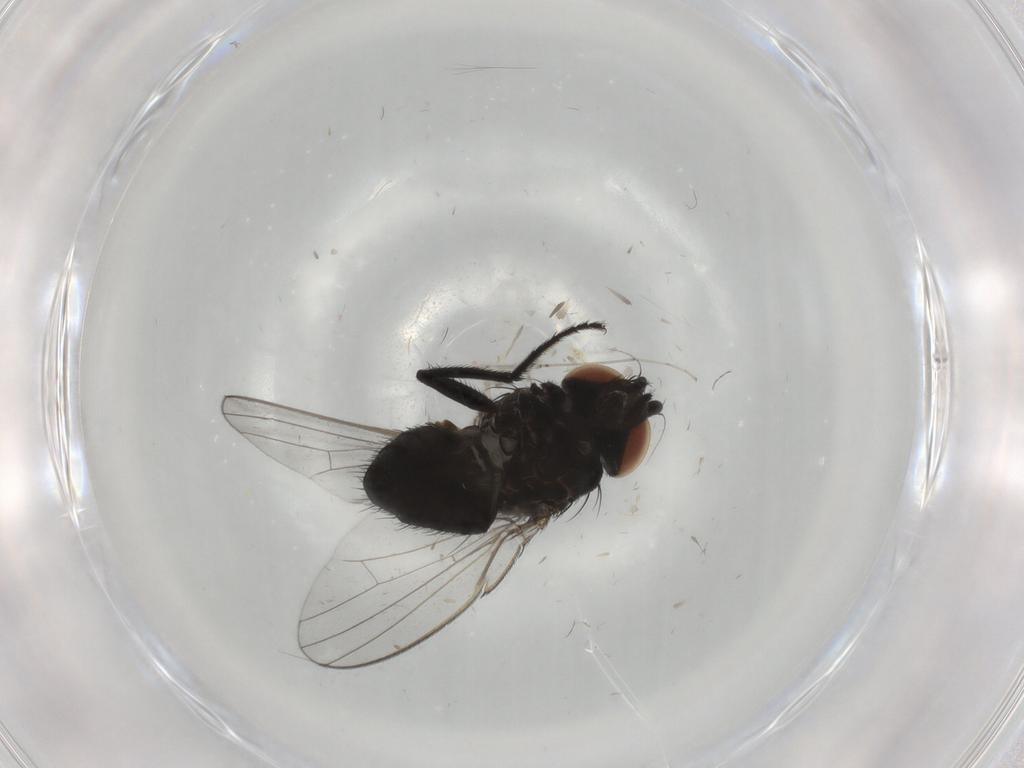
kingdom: Animalia
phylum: Arthropoda
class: Insecta
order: Diptera
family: Milichiidae
